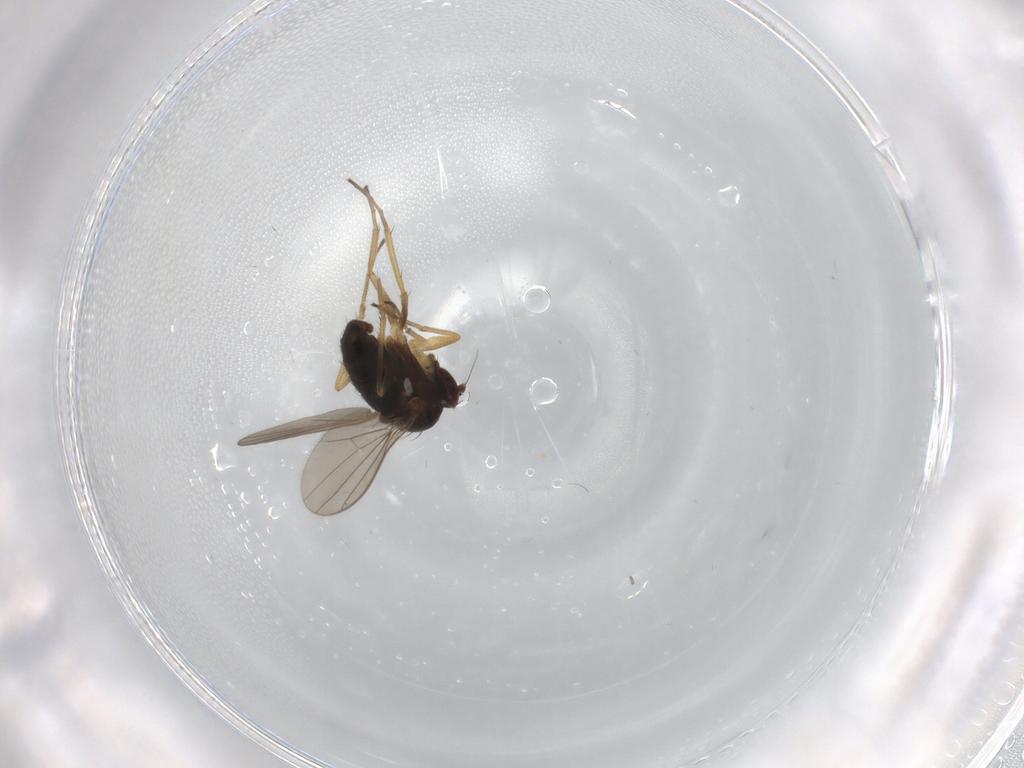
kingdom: Animalia
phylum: Arthropoda
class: Insecta
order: Diptera
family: Dolichopodidae
